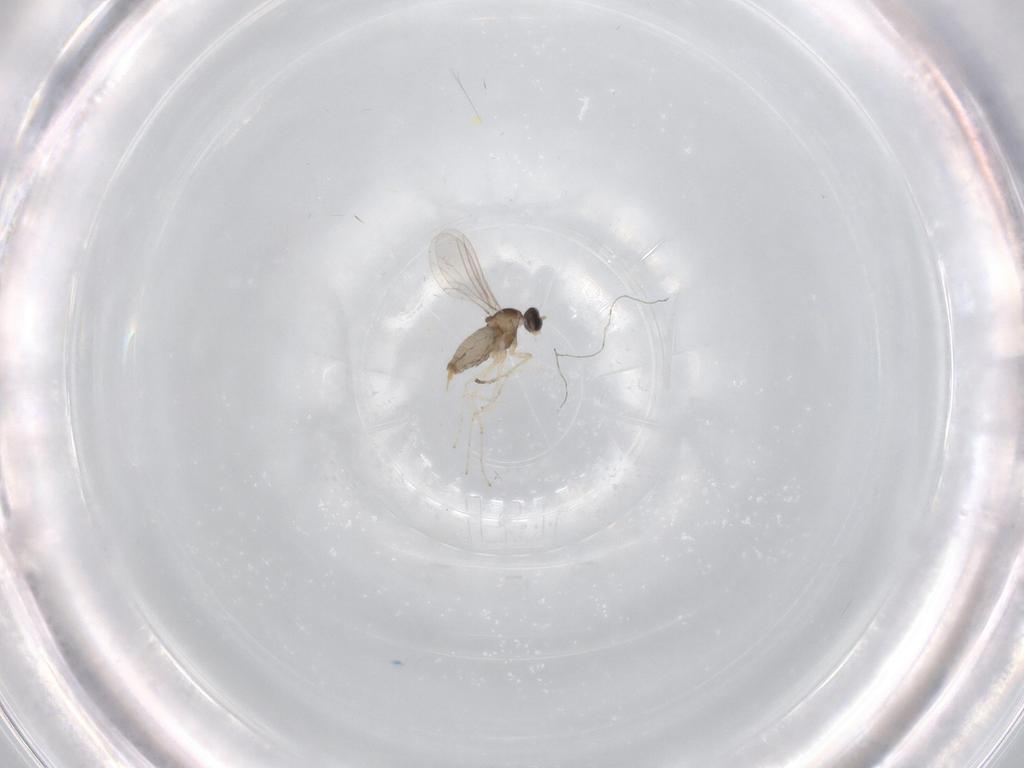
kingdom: Animalia
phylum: Arthropoda
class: Insecta
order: Diptera
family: Cecidomyiidae
